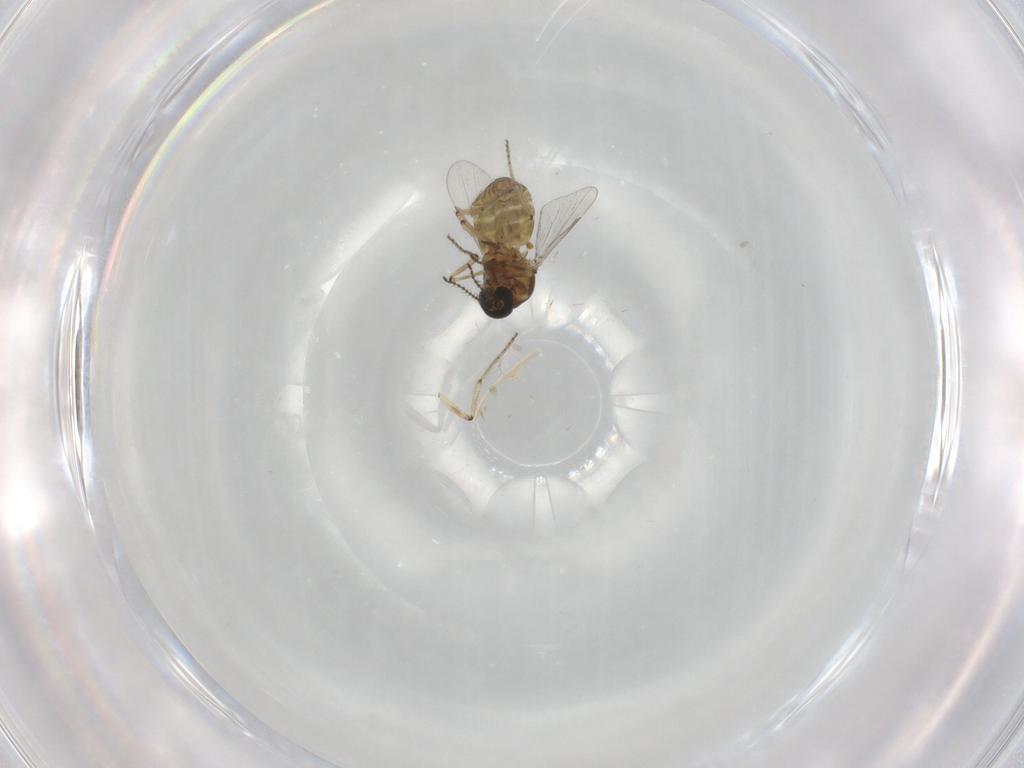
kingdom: Animalia
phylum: Arthropoda
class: Insecta
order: Diptera
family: Ceratopogonidae
